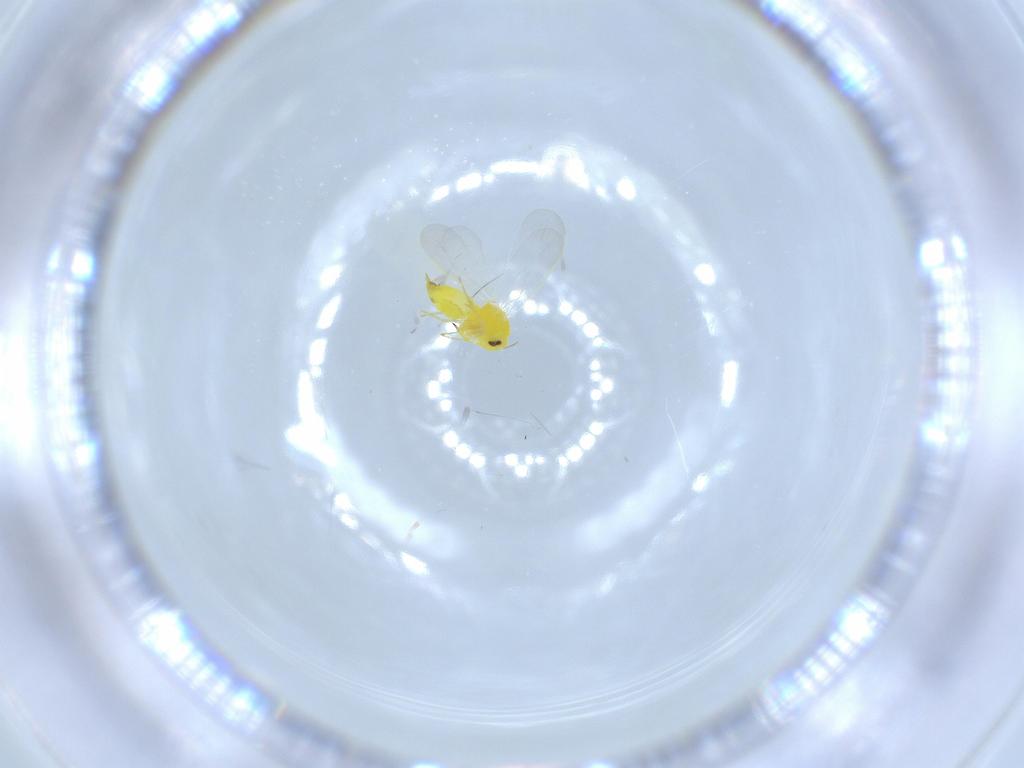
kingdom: Animalia
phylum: Arthropoda
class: Insecta
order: Hemiptera
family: Aleyrodidae
